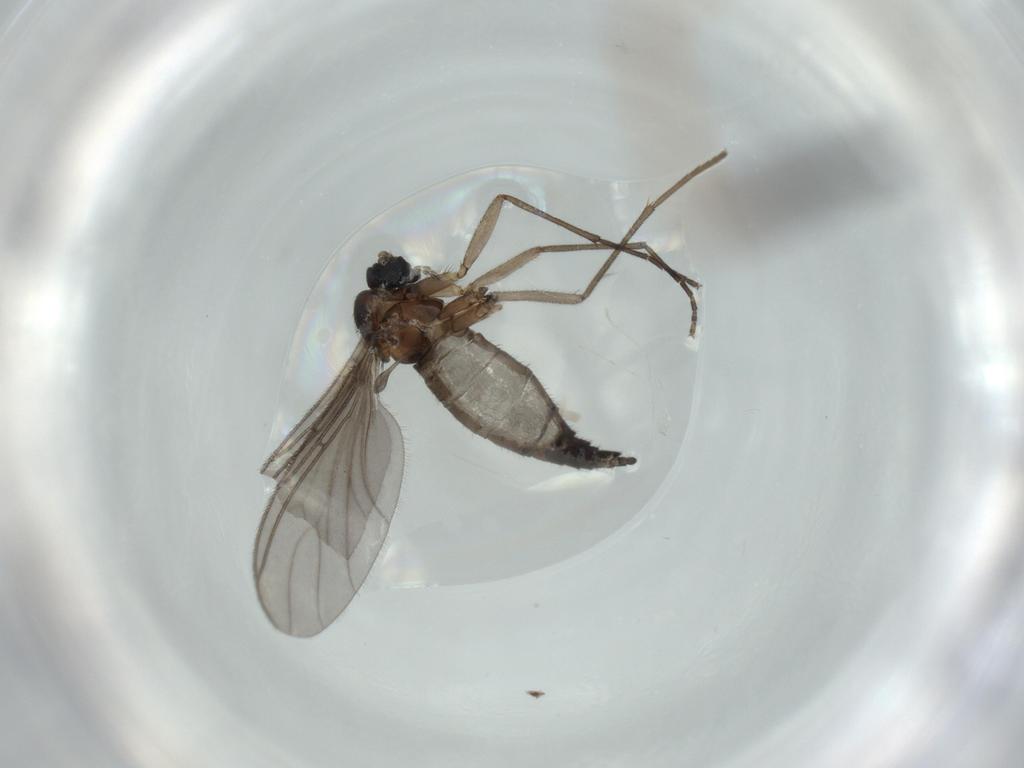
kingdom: Animalia
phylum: Arthropoda
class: Insecta
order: Diptera
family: Sciaridae
